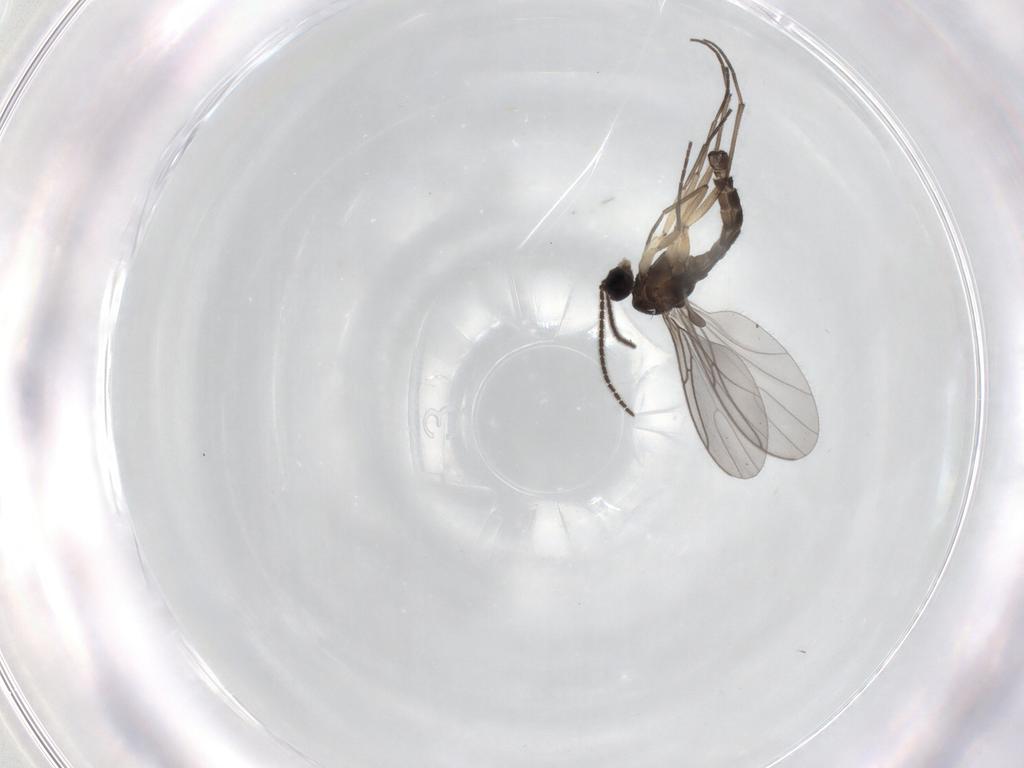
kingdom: Animalia
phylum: Arthropoda
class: Insecta
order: Diptera
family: Sciaridae
